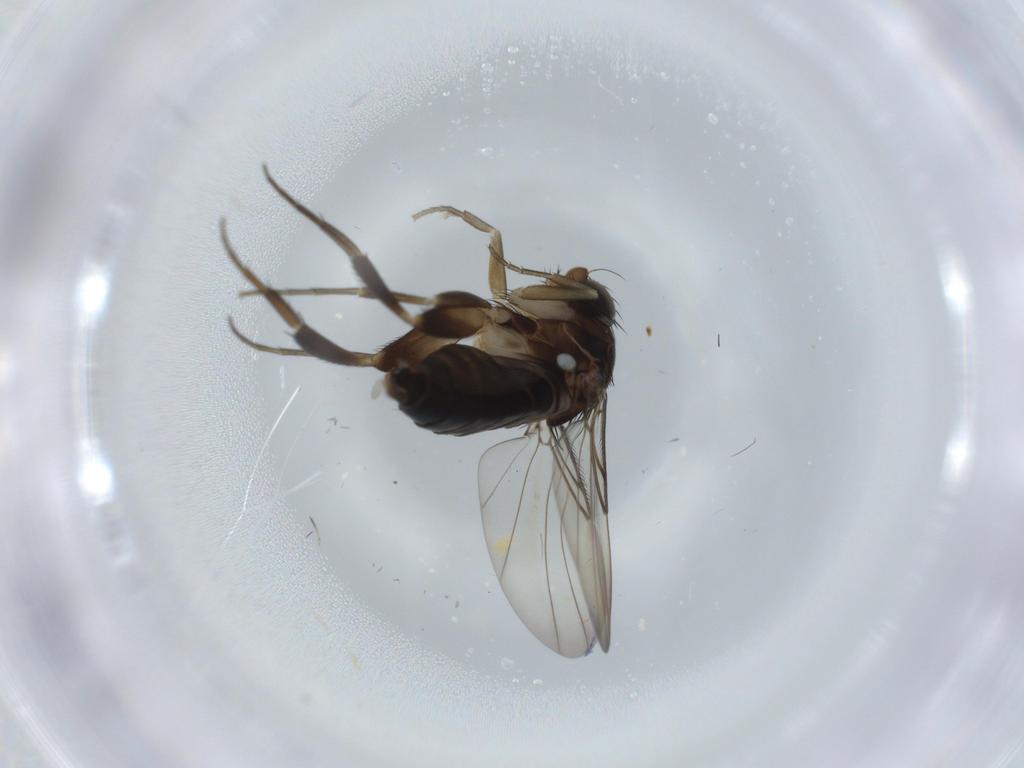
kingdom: Animalia
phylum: Arthropoda
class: Insecta
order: Diptera
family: Phoridae
